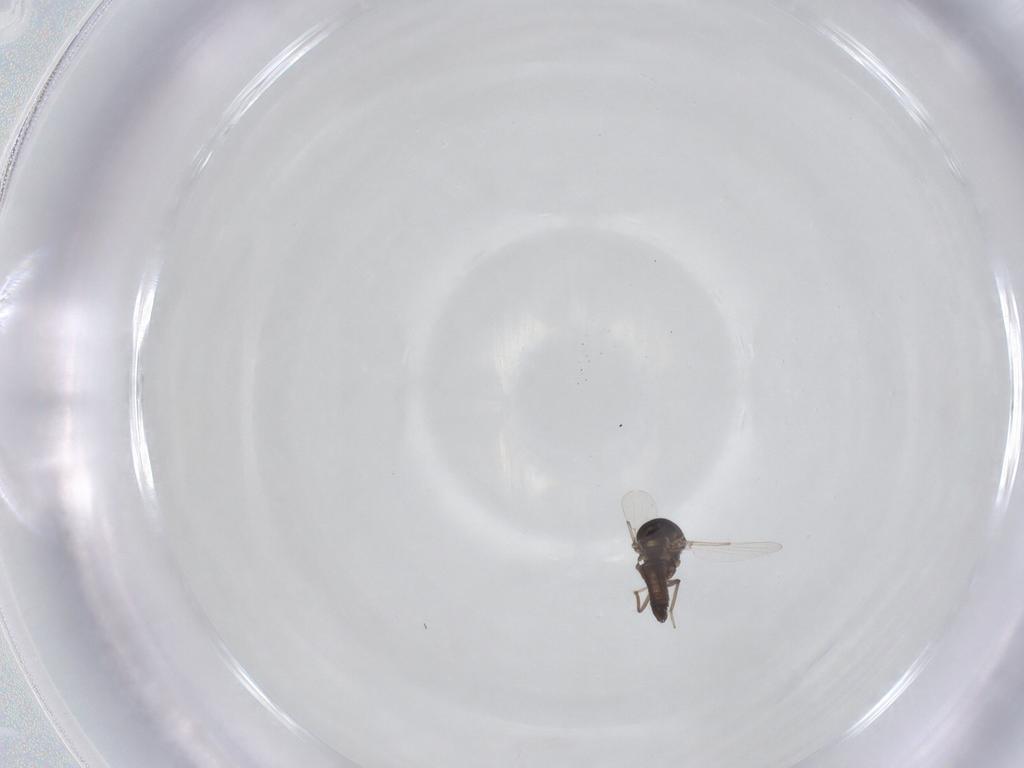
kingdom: Animalia
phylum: Arthropoda
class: Insecta
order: Diptera
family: Ceratopogonidae
